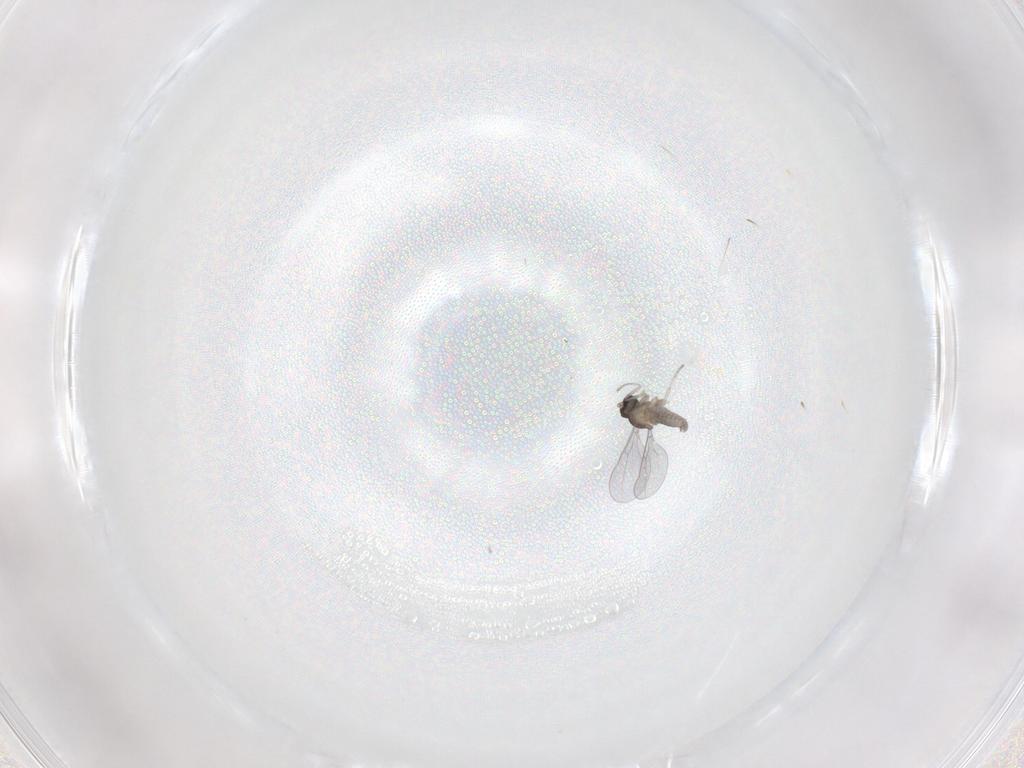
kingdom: Animalia
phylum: Arthropoda
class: Insecta
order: Diptera
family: Cecidomyiidae
